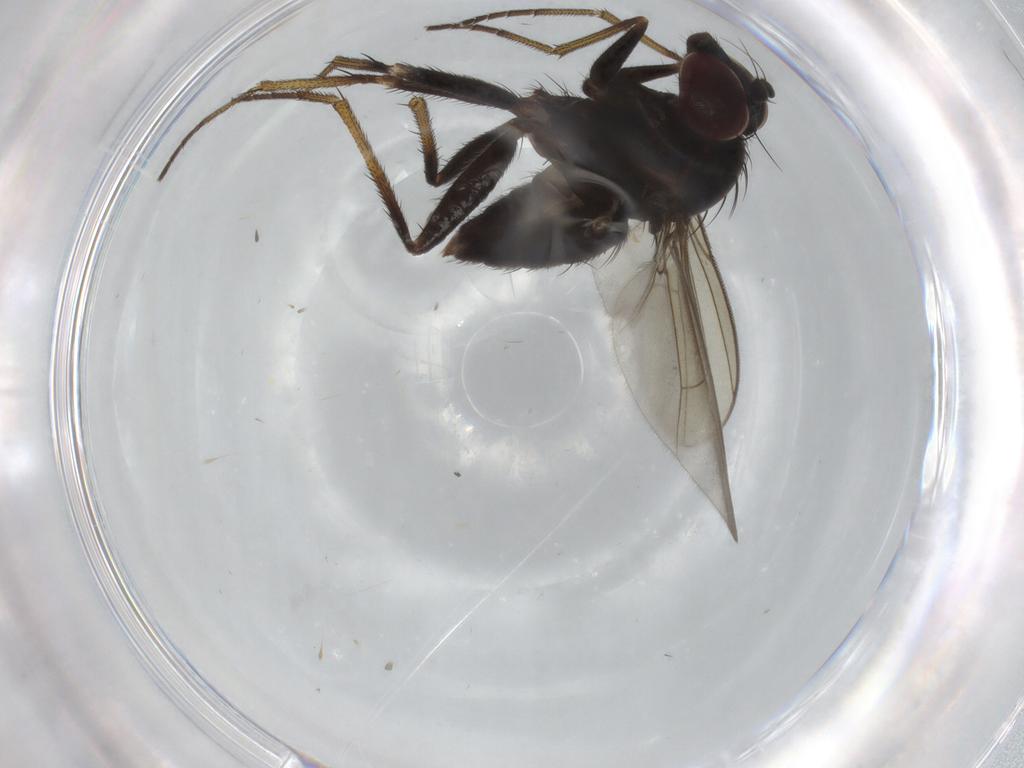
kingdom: Animalia
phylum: Arthropoda
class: Insecta
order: Diptera
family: Dolichopodidae
